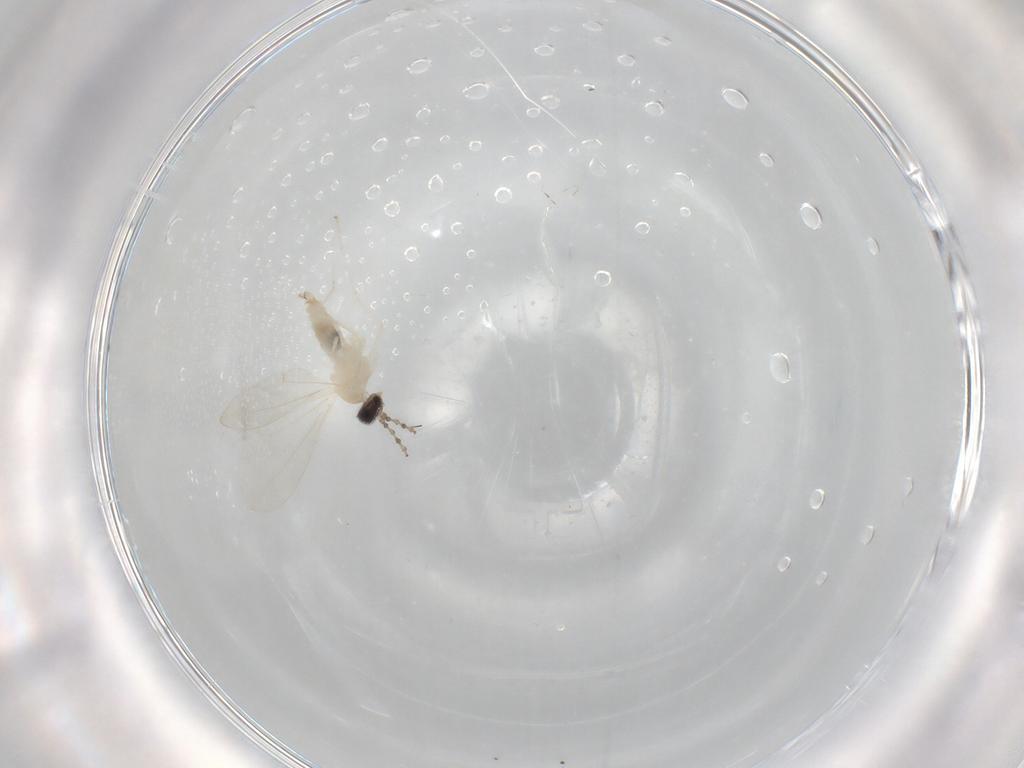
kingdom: Animalia
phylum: Arthropoda
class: Insecta
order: Diptera
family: Cecidomyiidae
